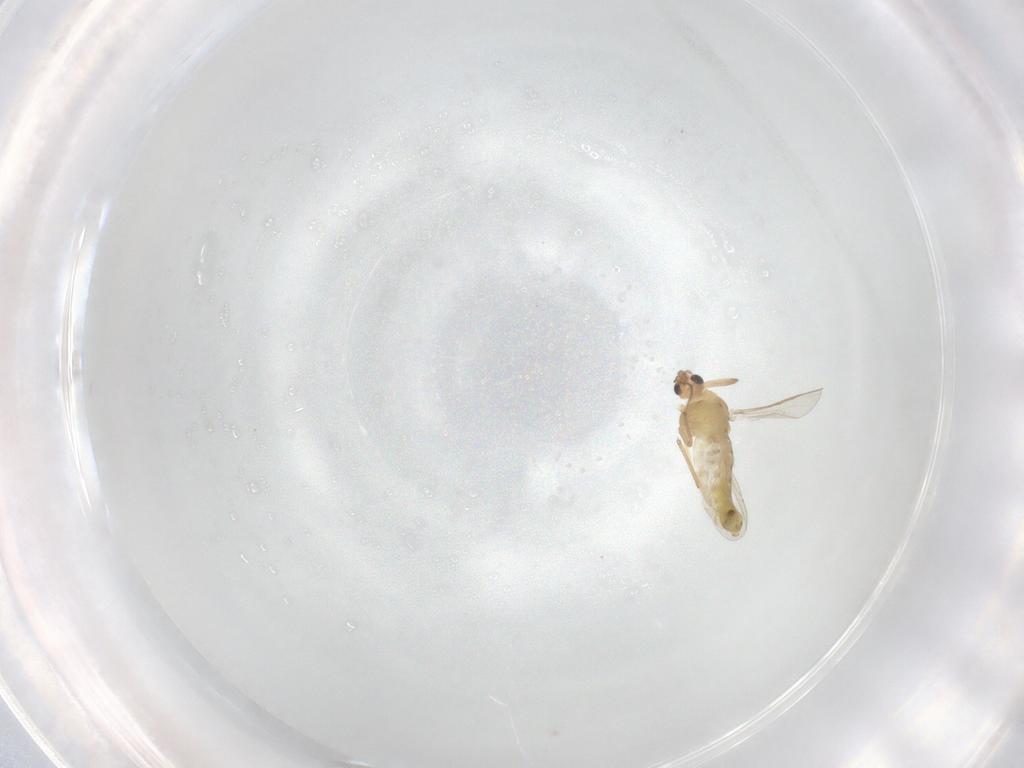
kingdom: Animalia
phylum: Arthropoda
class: Insecta
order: Diptera
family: Chironomidae
